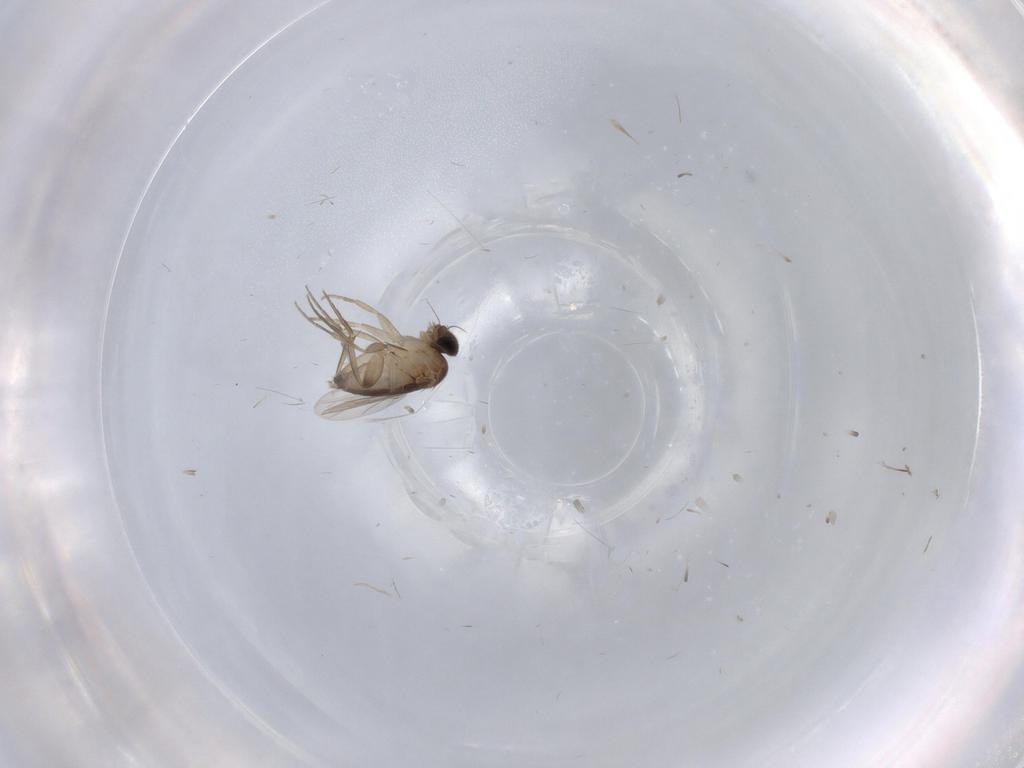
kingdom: Animalia
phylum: Arthropoda
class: Insecta
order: Diptera
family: Phoridae
